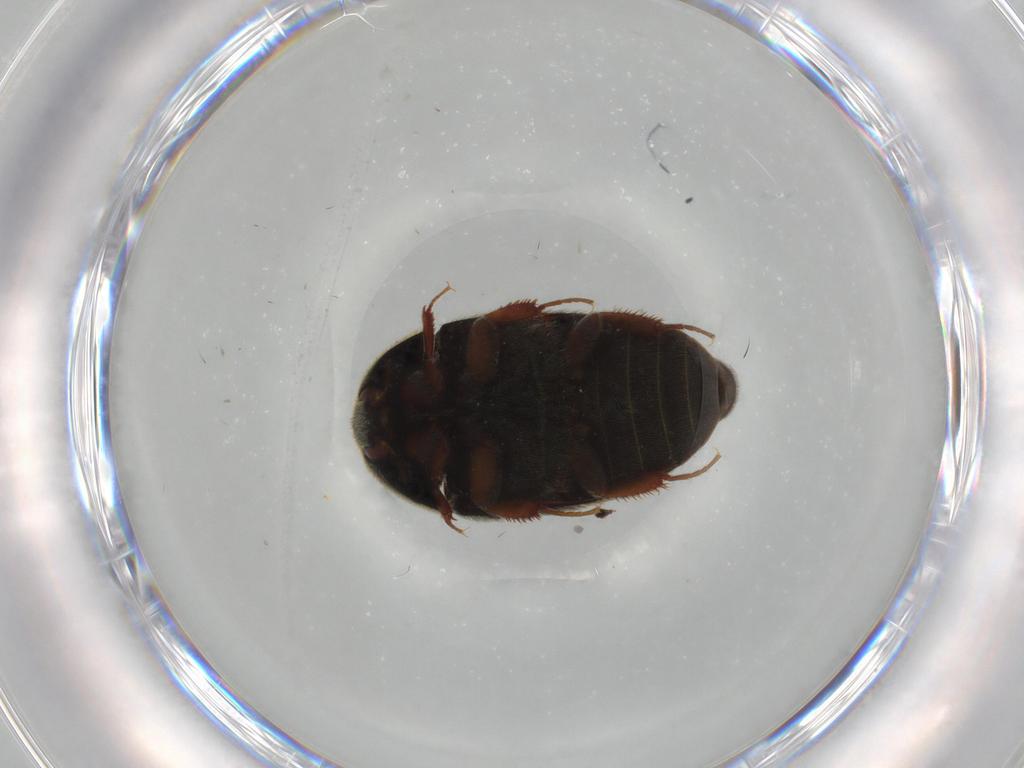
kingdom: Animalia
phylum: Arthropoda
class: Insecta
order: Coleoptera
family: Dermestidae
